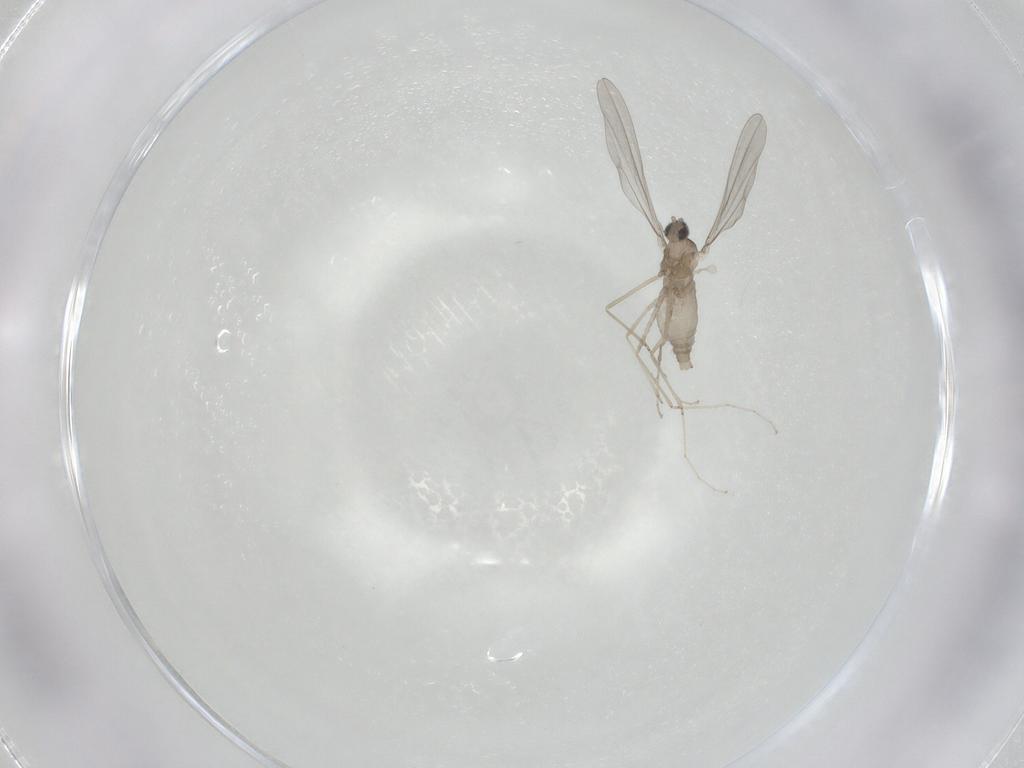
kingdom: Animalia
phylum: Arthropoda
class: Insecta
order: Diptera
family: Cecidomyiidae
